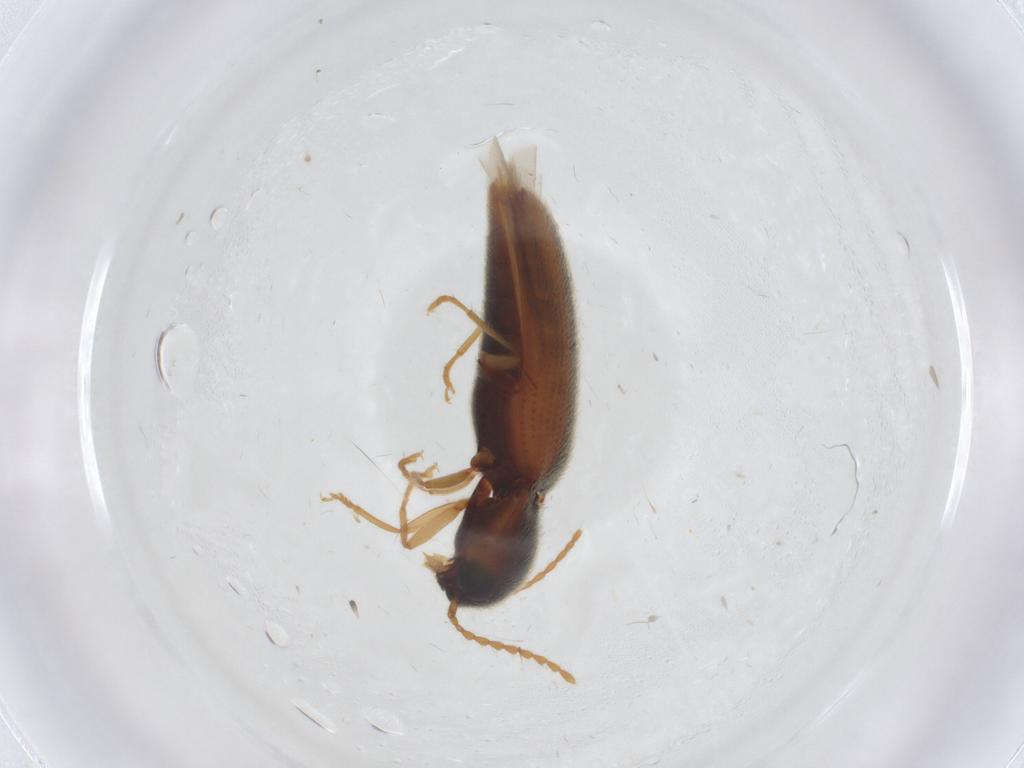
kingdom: Animalia
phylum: Arthropoda
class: Insecta
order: Coleoptera
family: Elateridae
